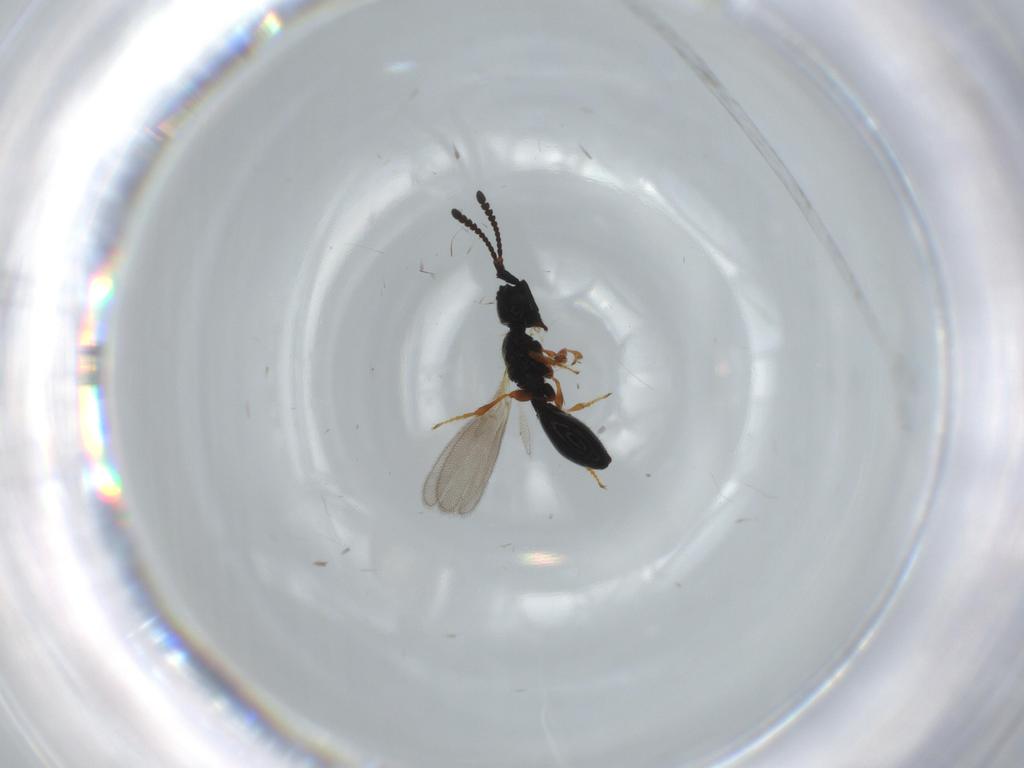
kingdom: Animalia
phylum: Arthropoda
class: Insecta
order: Hymenoptera
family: Diapriidae
